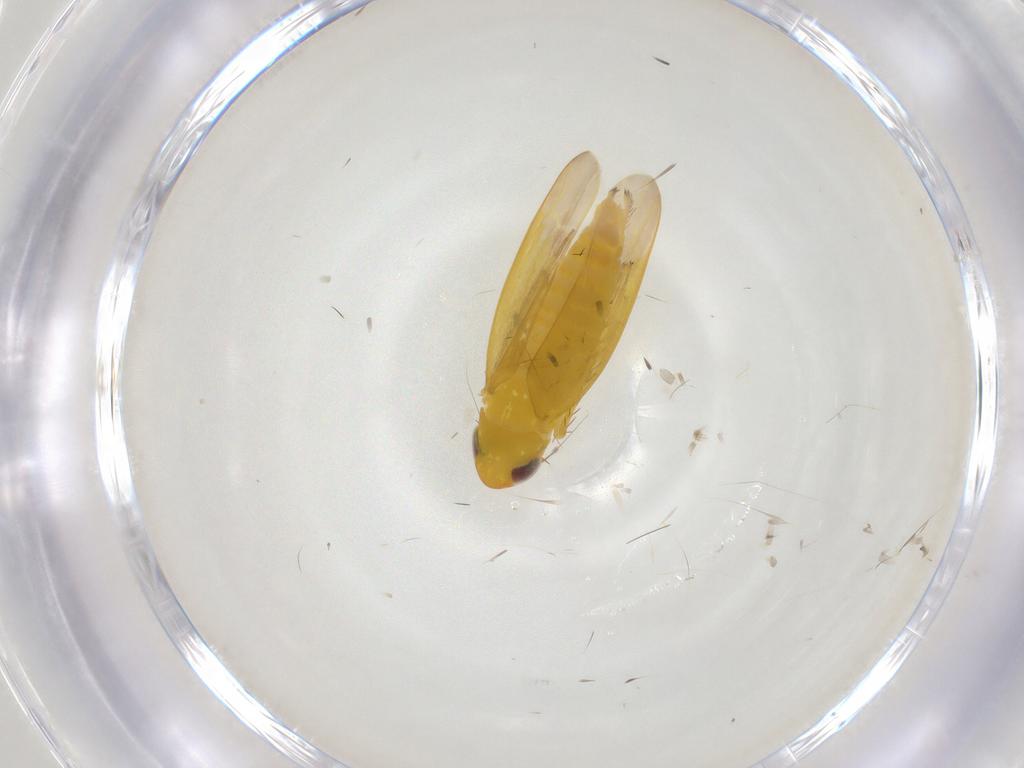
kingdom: Animalia
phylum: Arthropoda
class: Insecta
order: Hemiptera
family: Cicadellidae
